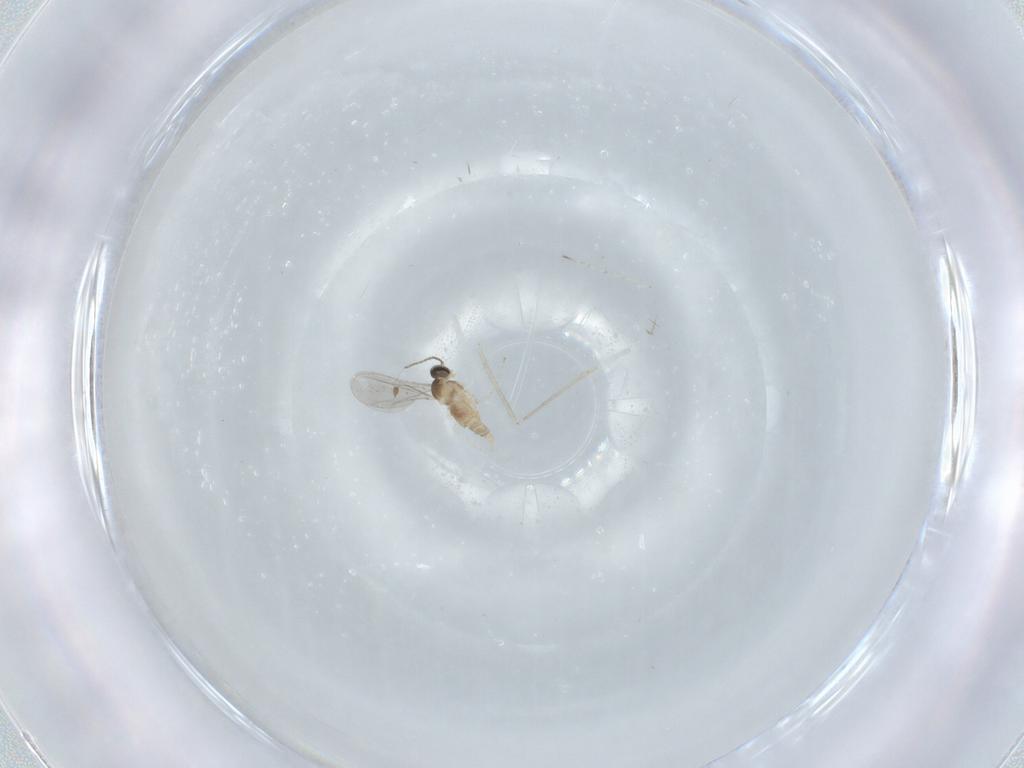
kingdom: Animalia
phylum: Arthropoda
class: Insecta
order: Diptera
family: Cecidomyiidae
